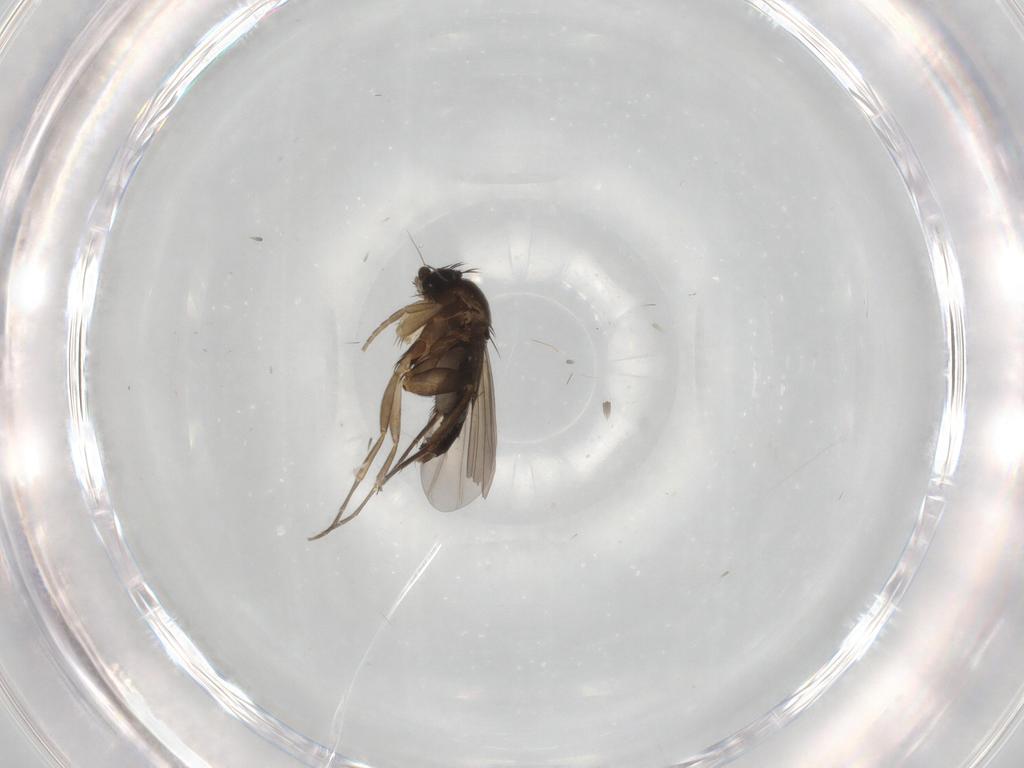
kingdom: Animalia
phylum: Arthropoda
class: Insecta
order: Diptera
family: Phoridae
